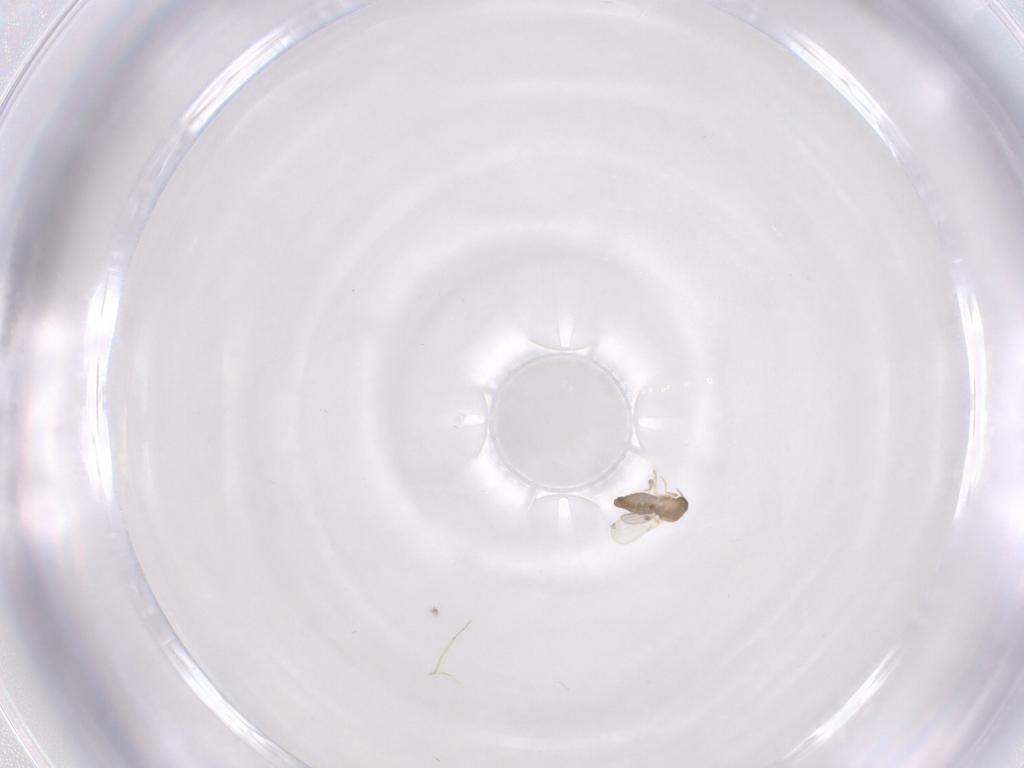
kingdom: Animalia
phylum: Arthropoda
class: Insecta
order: Diptera
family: Ceratopogonidae
